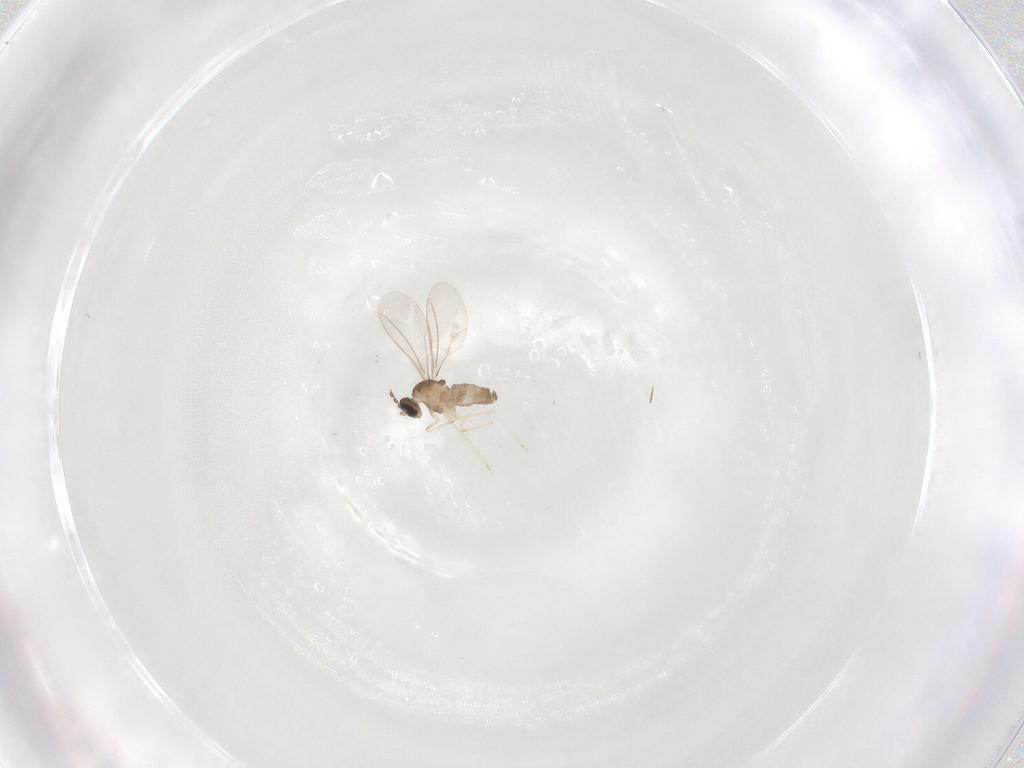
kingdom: Animalia
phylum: Arthropoda
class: Insecta
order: Diptera
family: Cecidomyiidae
